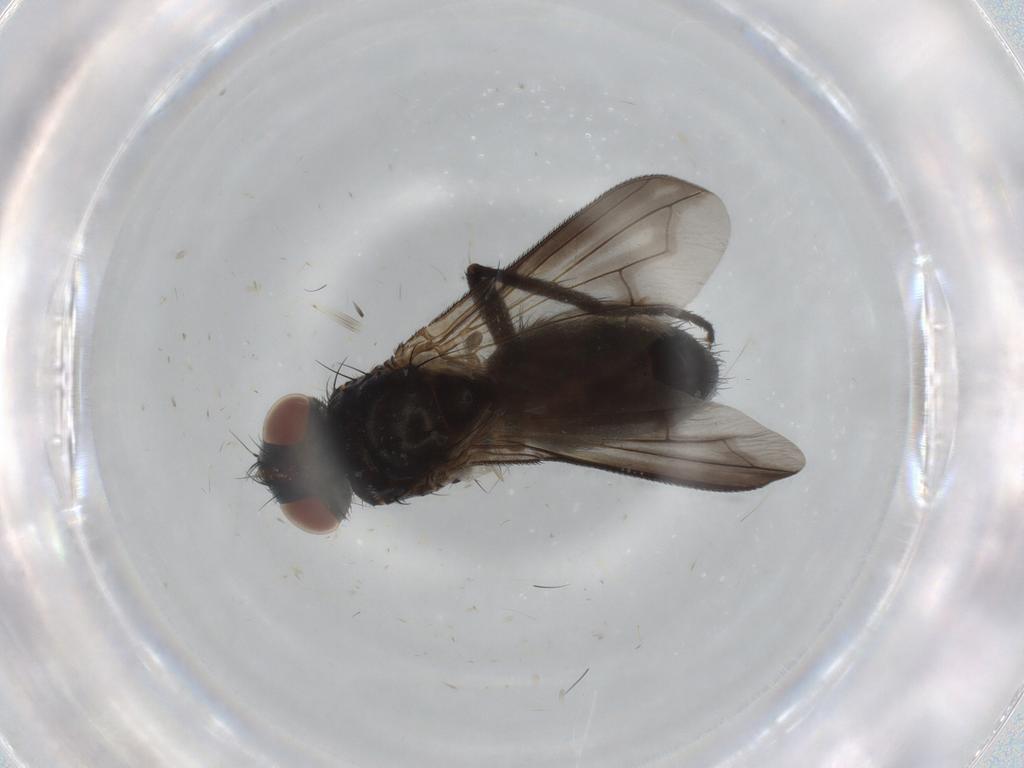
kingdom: Animalia
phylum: Arthropoda
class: Insecta
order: Diptera
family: Tachinidae
